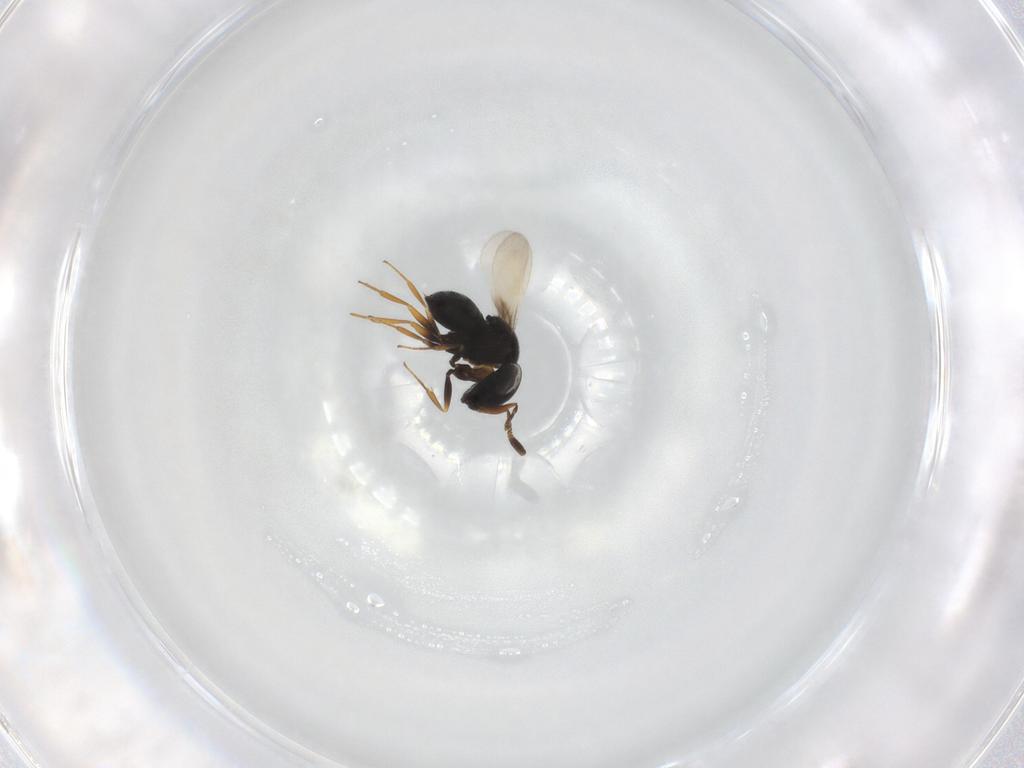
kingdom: Animalia
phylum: Arthropoda
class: Insecta
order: Hymenoptera
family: Scelionidae
